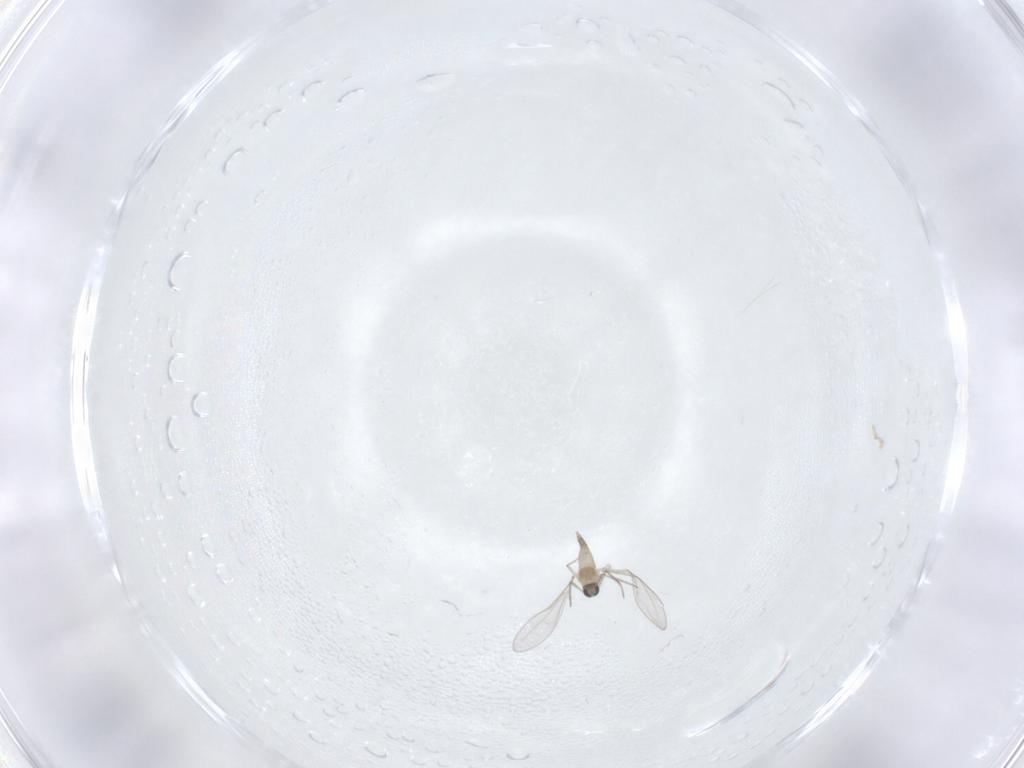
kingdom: Animalia
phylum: Arthropoda
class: Insecta
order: Diptera
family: Cecidomyiidae
